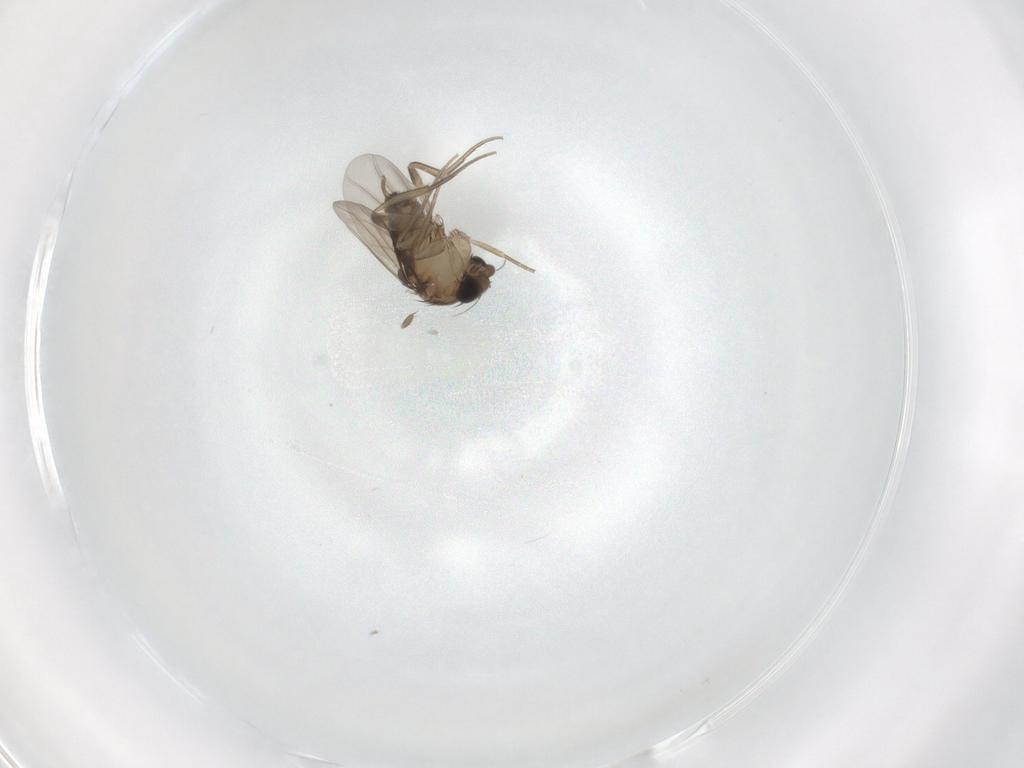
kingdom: Animalia
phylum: Arthropoda
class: Insecta
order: Diptera
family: Phoridae
